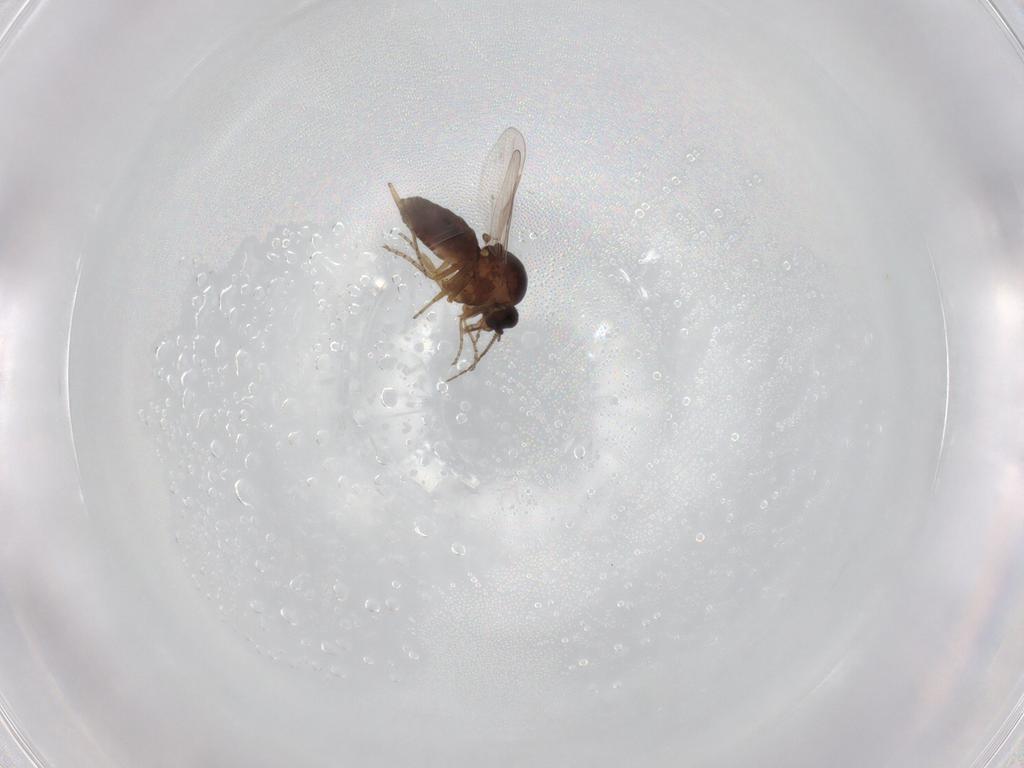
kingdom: Animalia
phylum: Arthropoda
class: Insecta
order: Diptera
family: Ceratopogonidae
